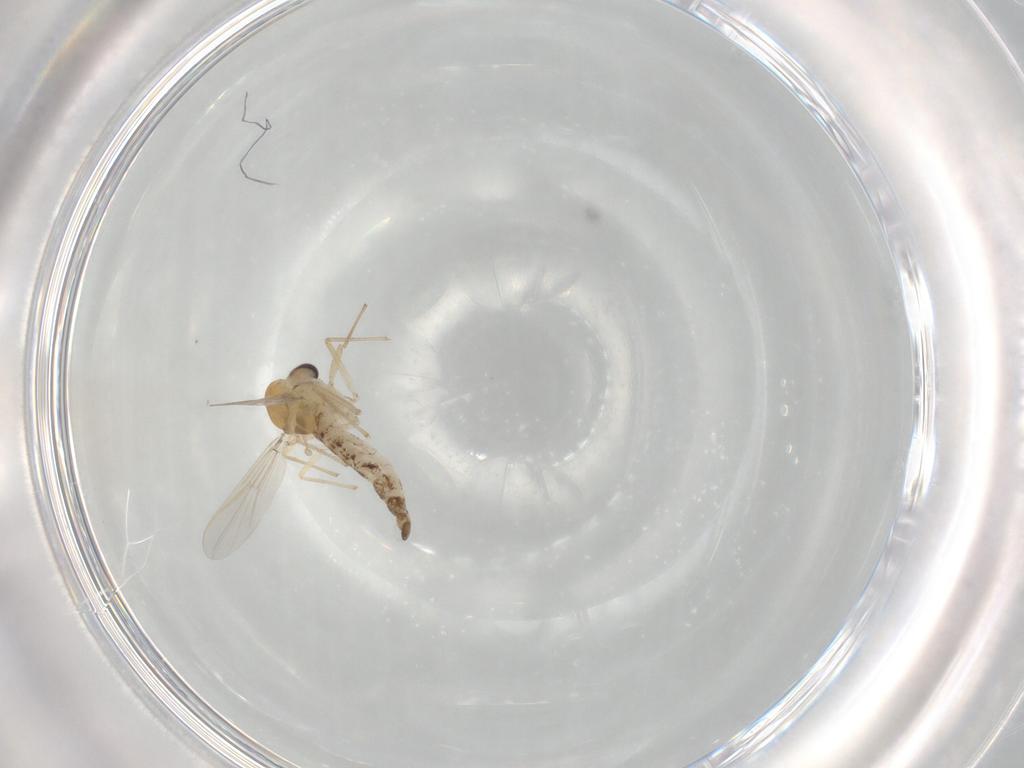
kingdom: Animalia
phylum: Arthropoda
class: Insecta
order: Diptera
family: Chironomidae
